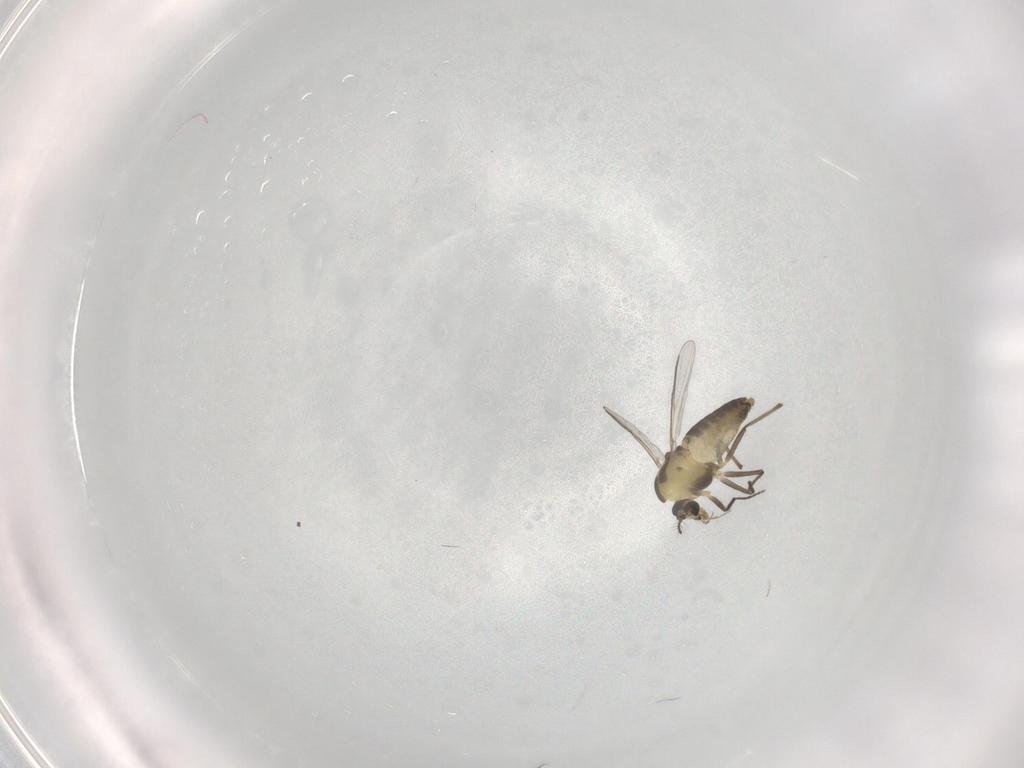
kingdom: Animalia
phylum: Arthropoda
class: Insecta
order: Diptera
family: Chironomidae
